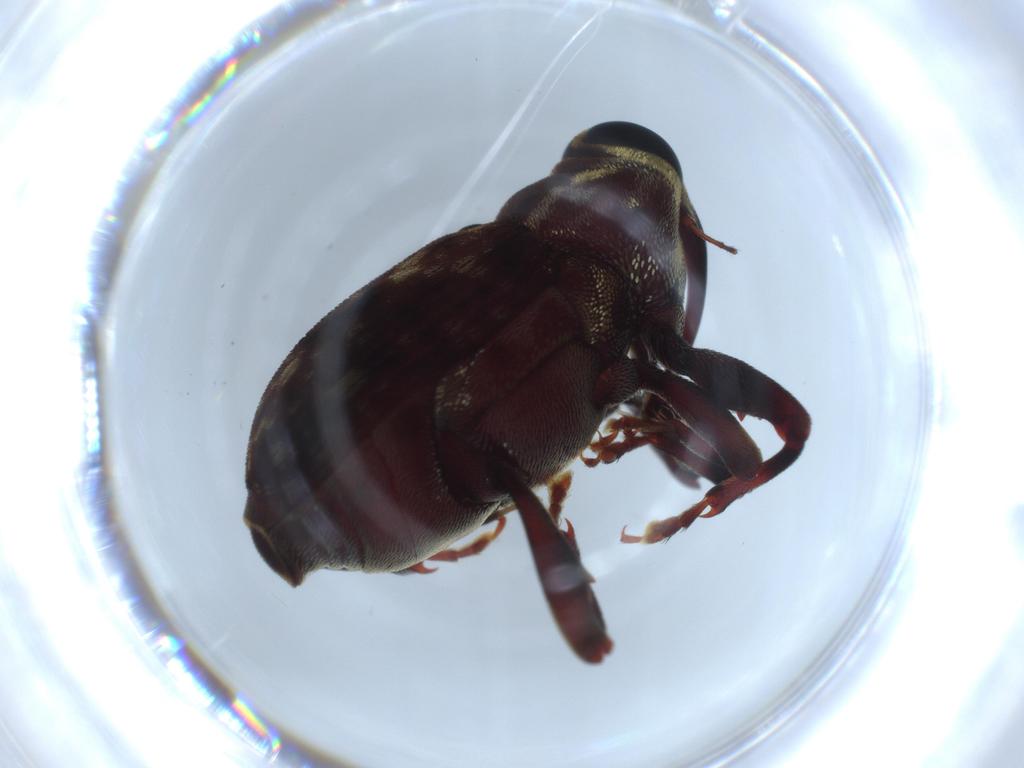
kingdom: Animalia
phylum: Arthropoda
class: Insecta
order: Coleoptera
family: Curculionidae
